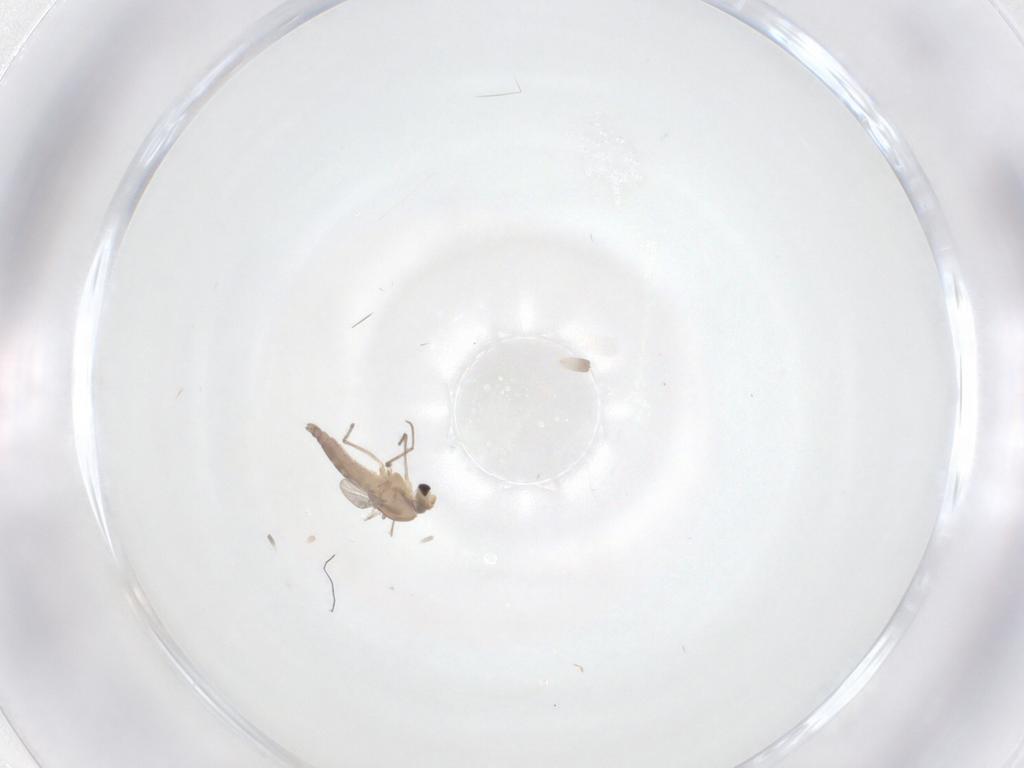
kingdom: Animalia
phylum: Arthropoda
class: Insecta
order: Diptera
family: Chironomidae
